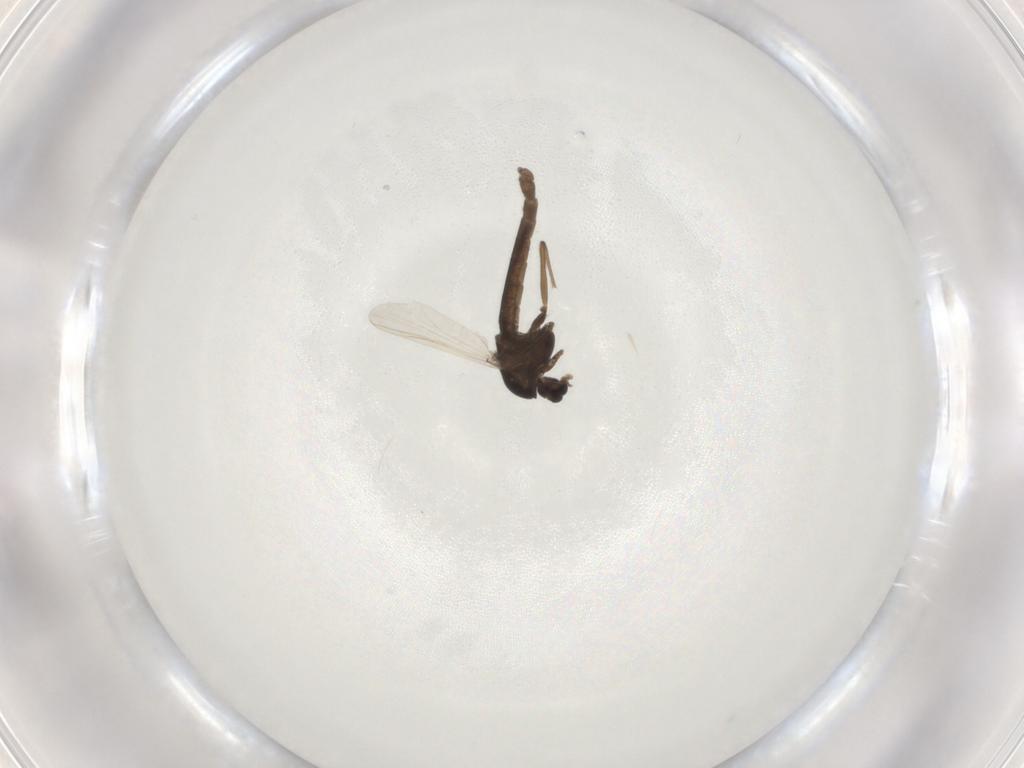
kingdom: Animalia
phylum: Arthropoda
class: Insecta
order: Diptera
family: Chironomidae
